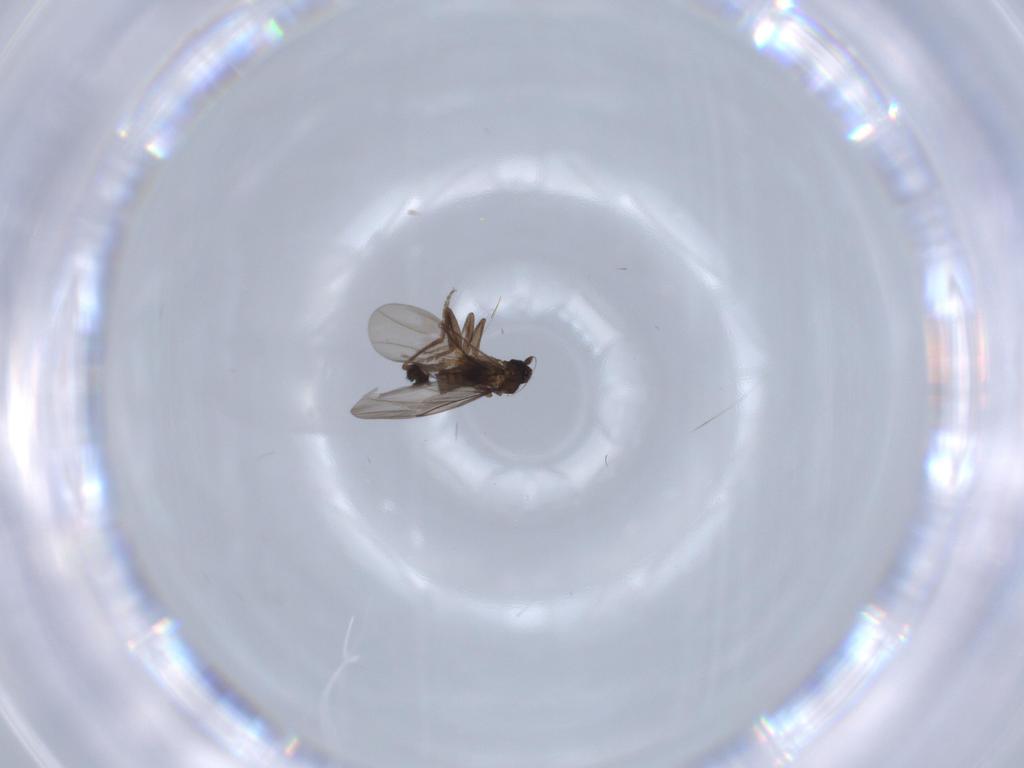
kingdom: Animalia
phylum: Arthropoda
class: Insecta
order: Diptera
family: Phoridae
